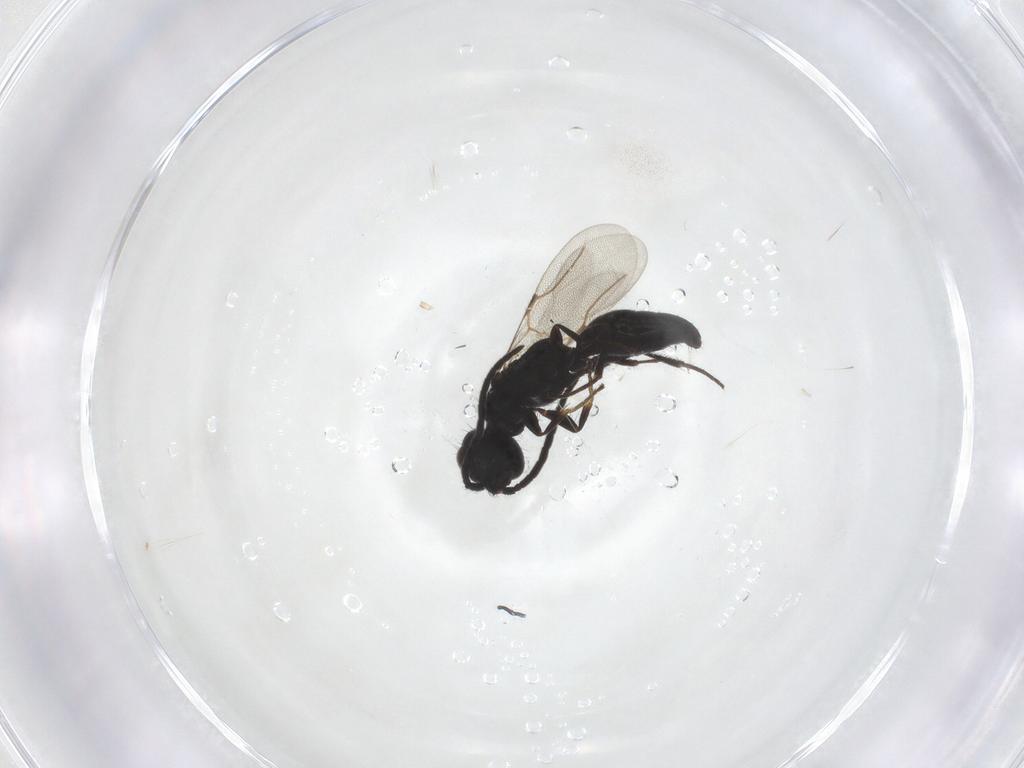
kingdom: Animalia
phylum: Arthropoda
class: Insecta
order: Hymenoptera
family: Bethylidae
